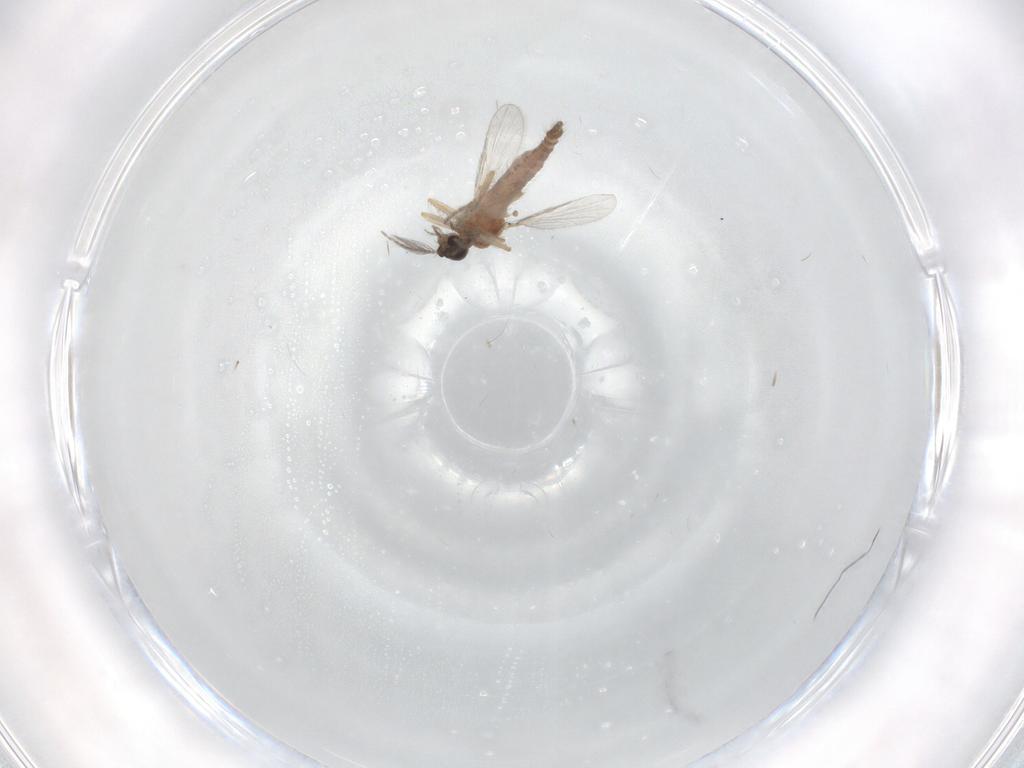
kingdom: Animalia
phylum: Arthropoda
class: Insecta
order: Diptera
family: Ceratopogonidae
